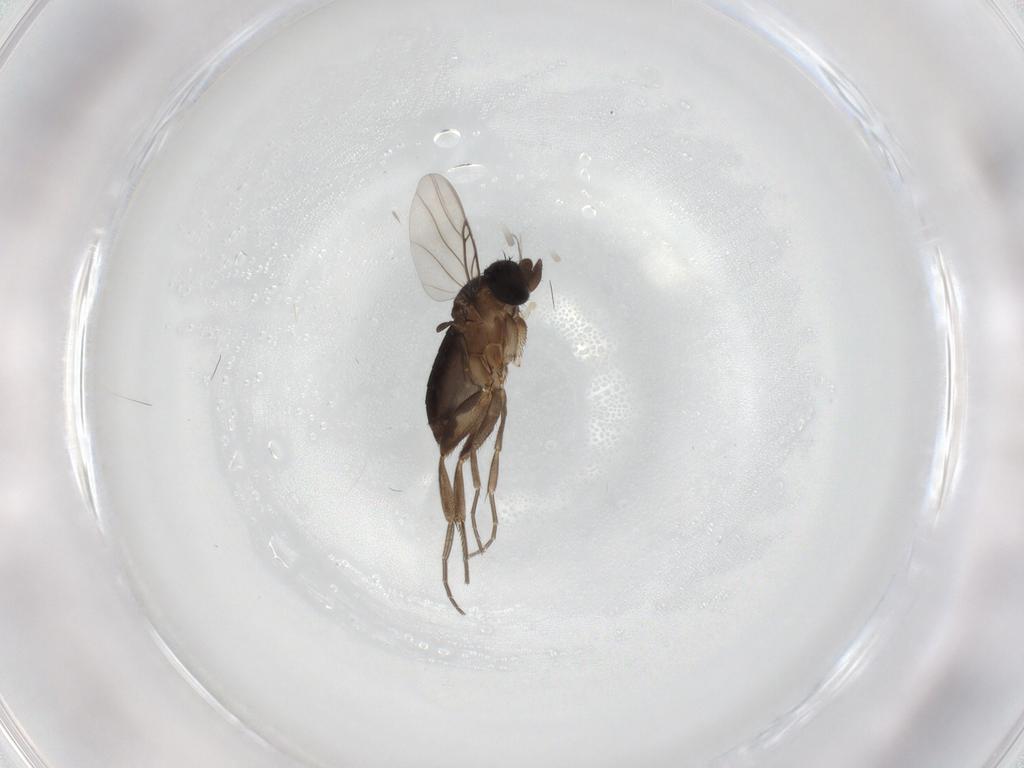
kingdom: Animalia
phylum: Arthropoda
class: Insecta
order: Diptera
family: Phoridae
